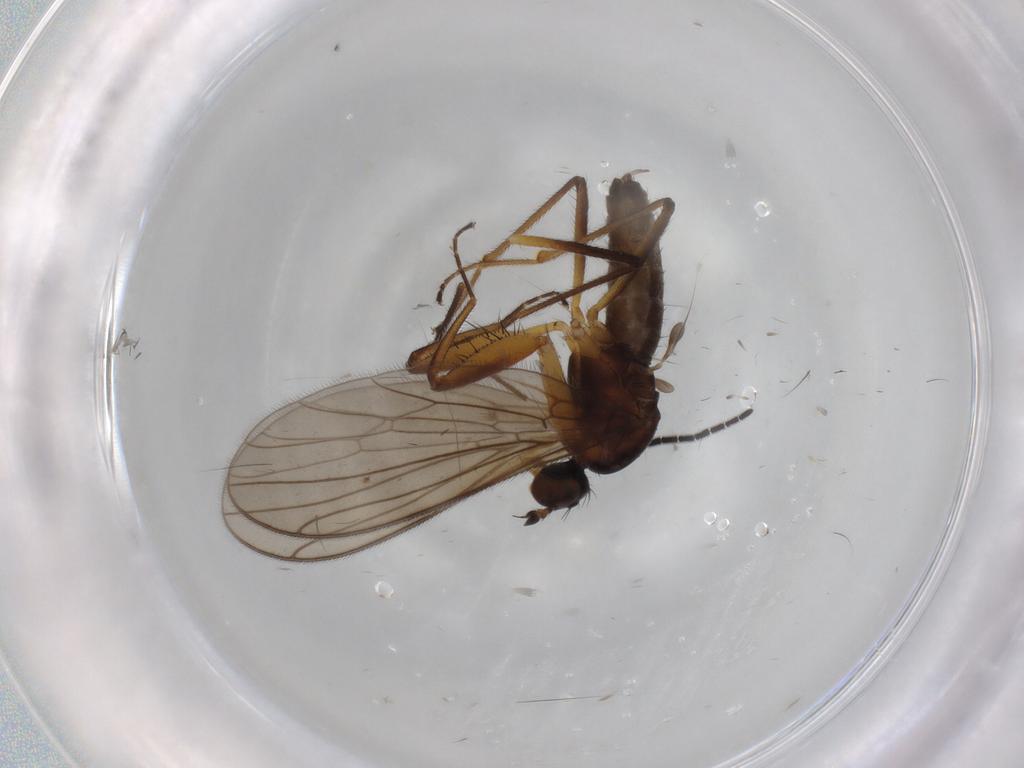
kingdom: Animalia
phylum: Arthropoda
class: Insecta
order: Diptera
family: Empididae
